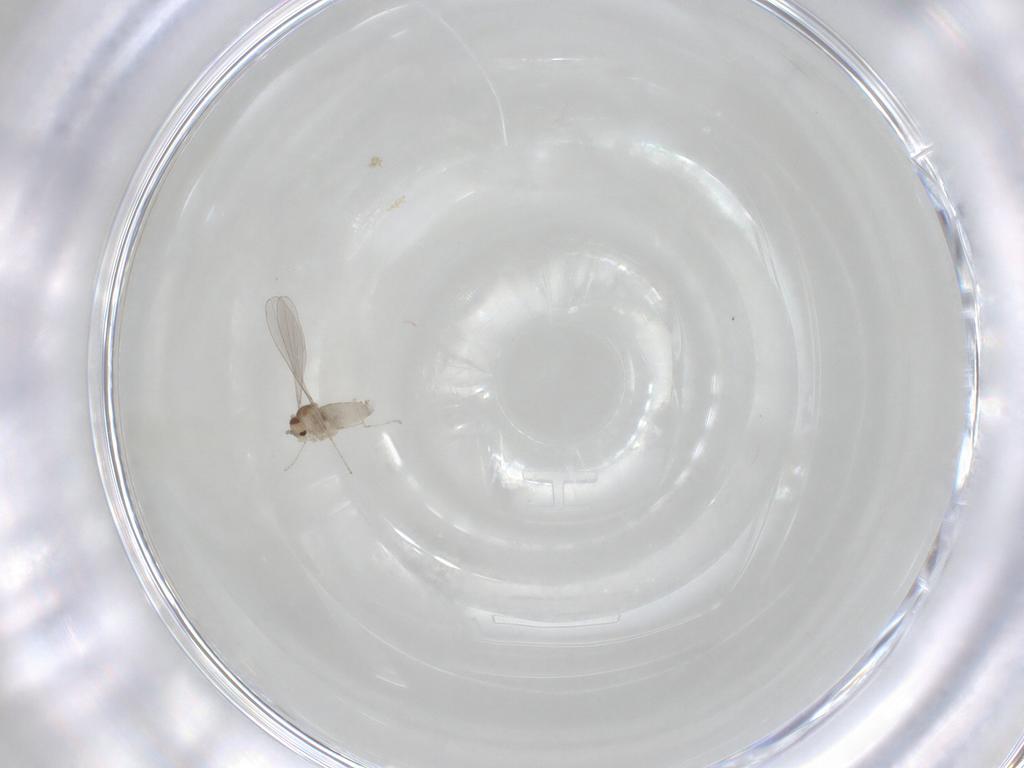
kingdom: Animalia
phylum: Arthropoda
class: Insecta
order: Diptera
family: Cecidomyiidae
